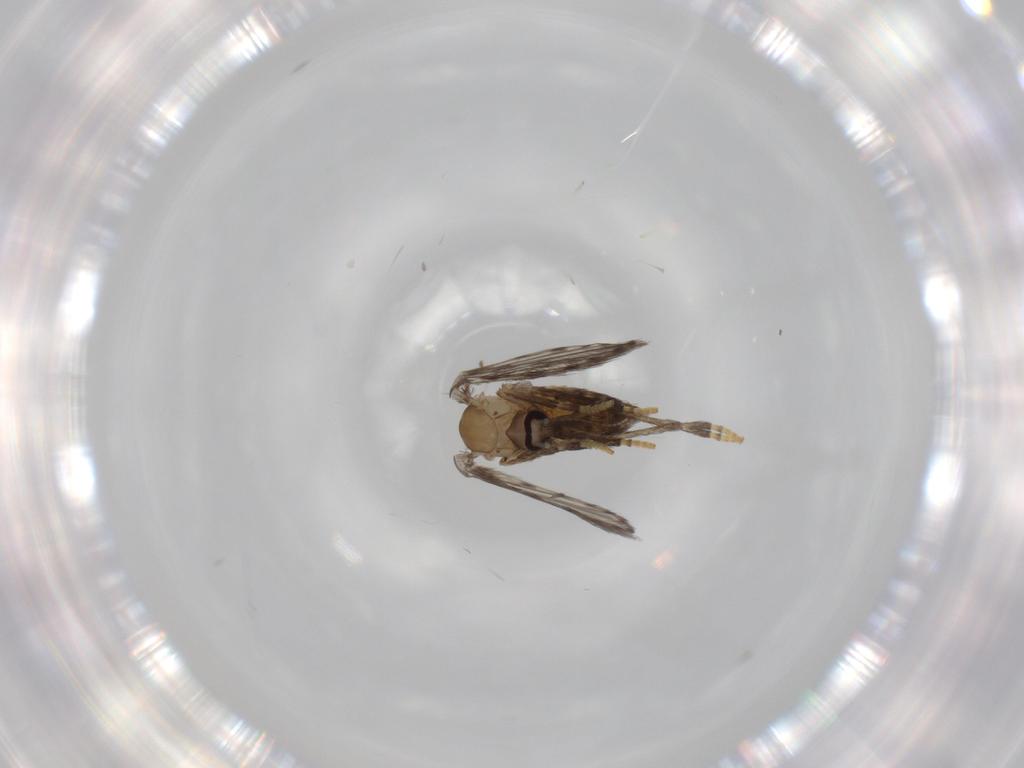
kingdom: Animalia
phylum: Arthropoda
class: Insecta
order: Diptera
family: Psychodidae
